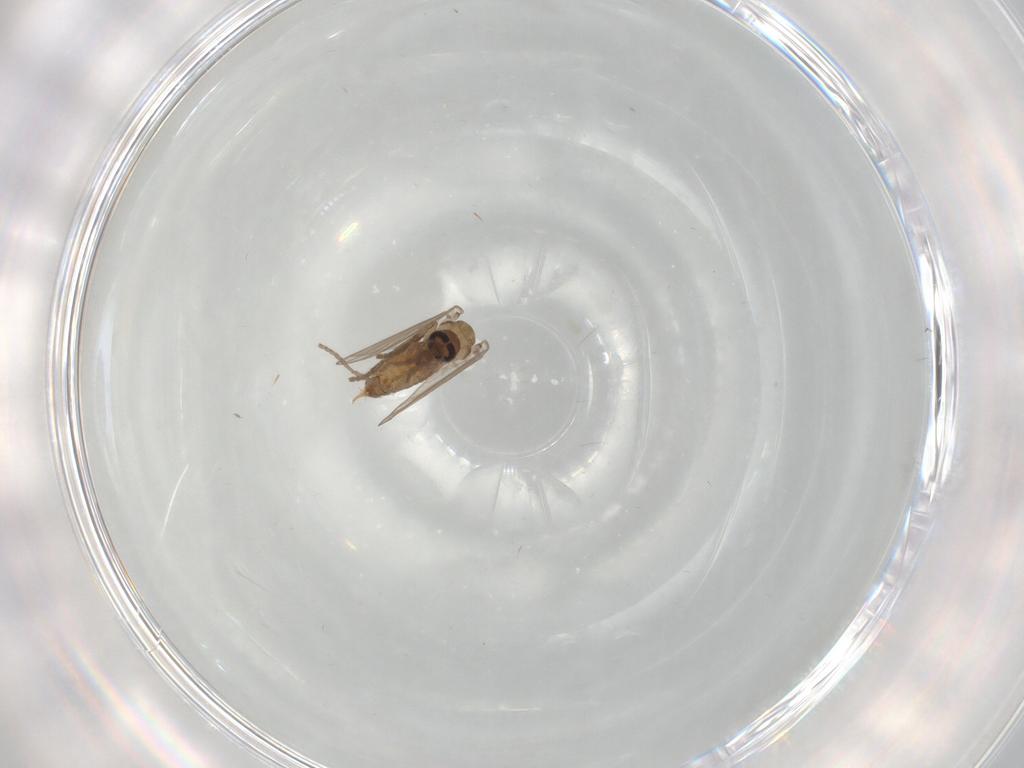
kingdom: Animalia
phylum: Arthropoda
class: Insecta
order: Diptera
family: Psychodidae
